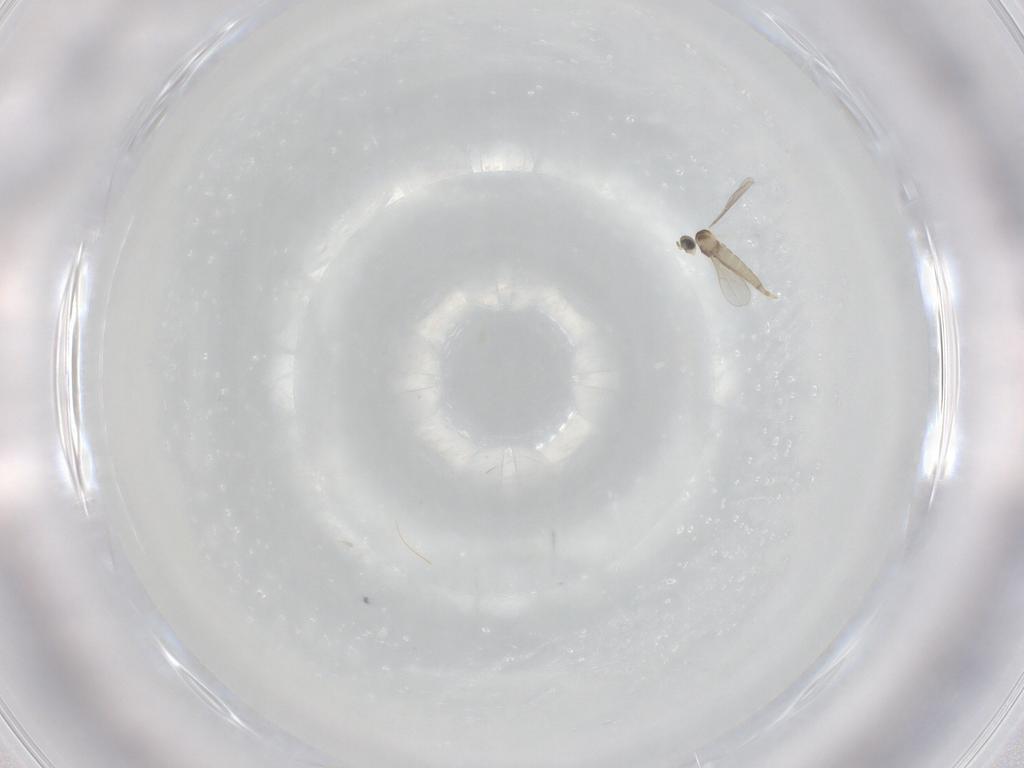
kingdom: Animalia
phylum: Arthropoda
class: Insecta
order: Diptera
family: Cecidomyiidae
